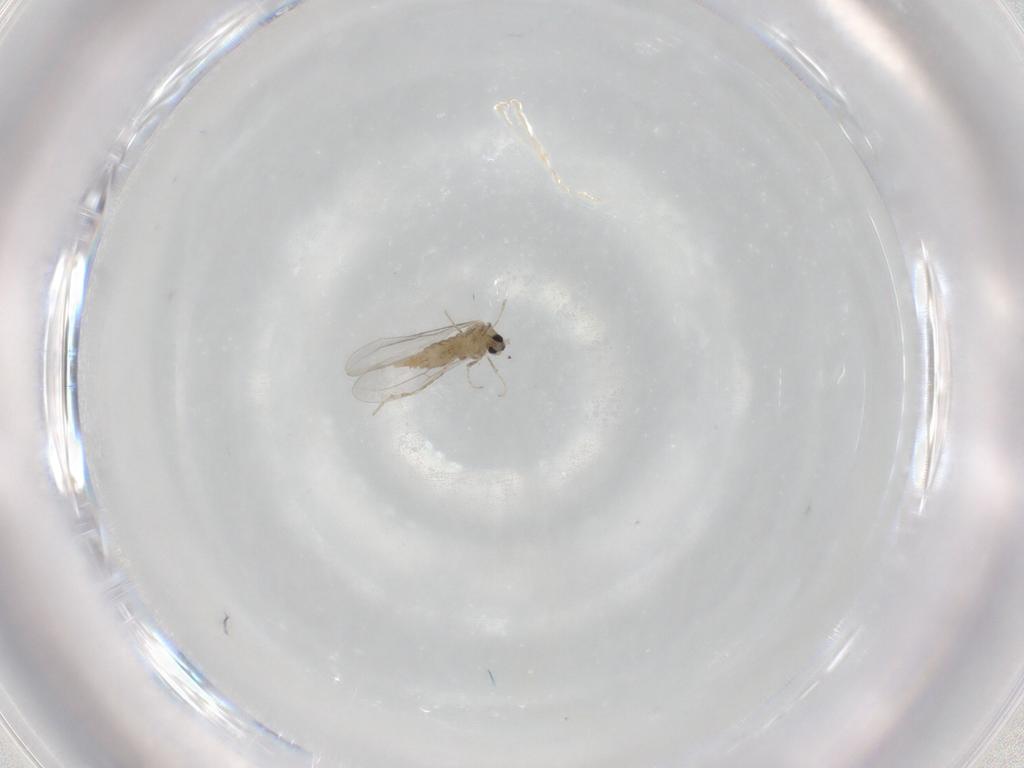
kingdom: Animalia
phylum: Arthropoda
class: Insecta
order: Diptera
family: Cecidomyiidae
